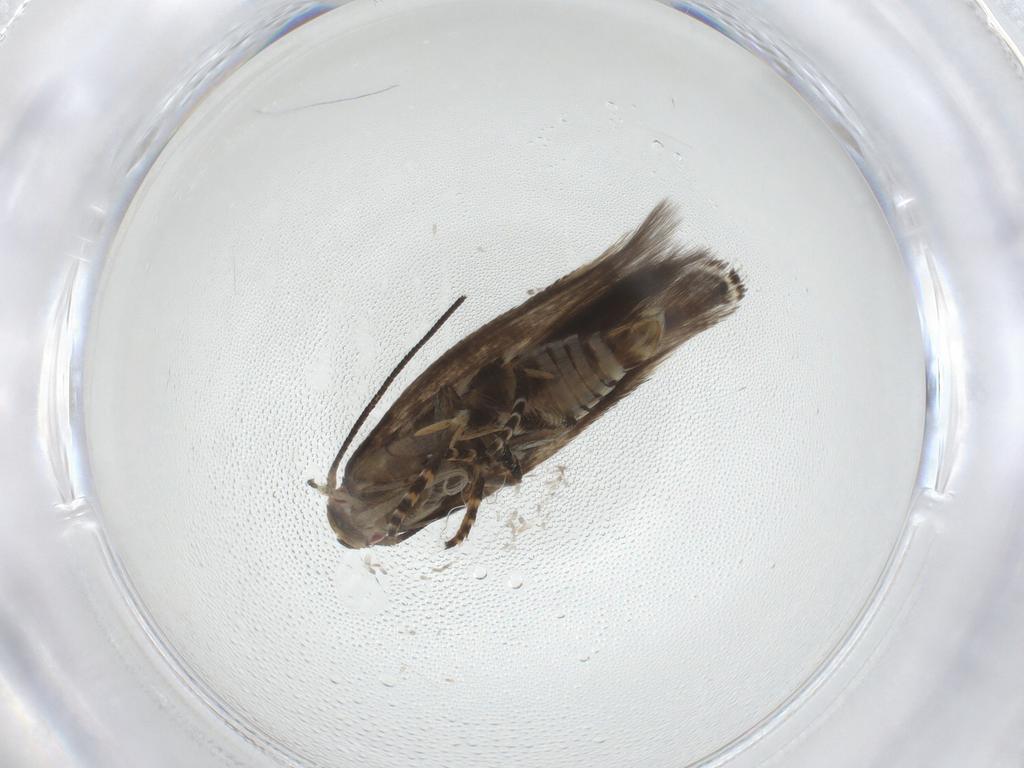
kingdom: Animalia
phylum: Arthropoda
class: Insecta
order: Lepidoptera
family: Momphidae
